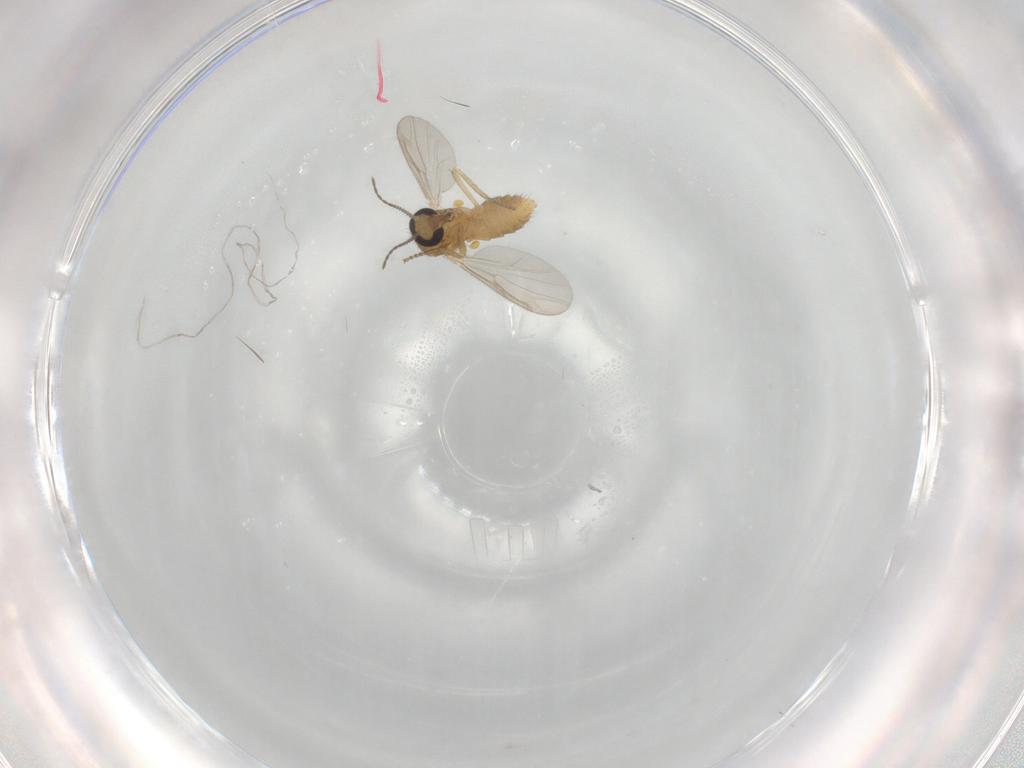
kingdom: Animalia
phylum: Arthropoda
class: Insecta
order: Diptera
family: Ceratopogonidae
